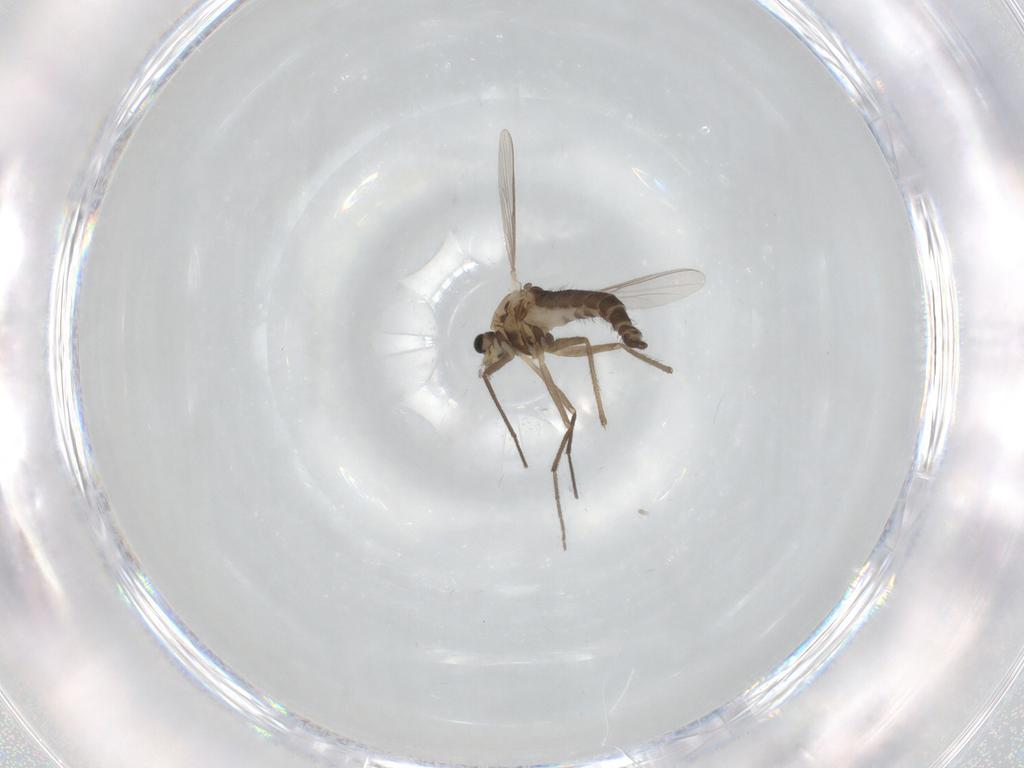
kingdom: Animalia
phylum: Arthropoda
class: Insecta
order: Diptera
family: Chironomidae
